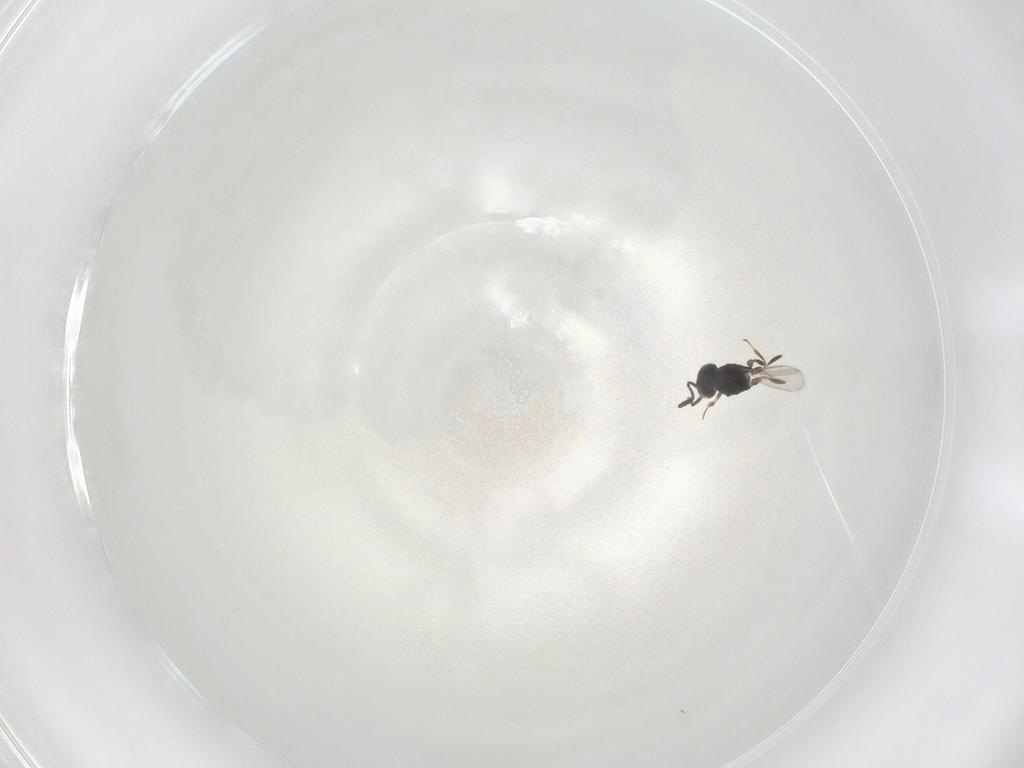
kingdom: Animalia
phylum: Arthropoda
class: Insecta
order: Hymenoptera
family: Scelionidae
